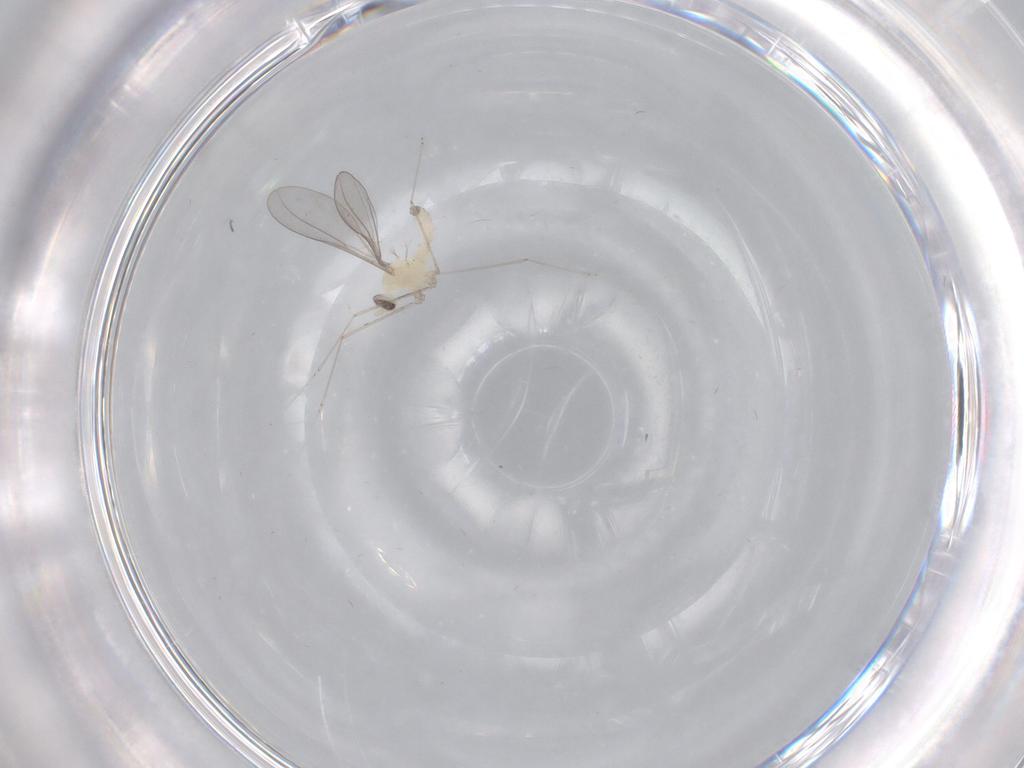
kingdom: Animalia
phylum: Arthropoda
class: Insecta
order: Diptera
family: Cecidomyiidae
